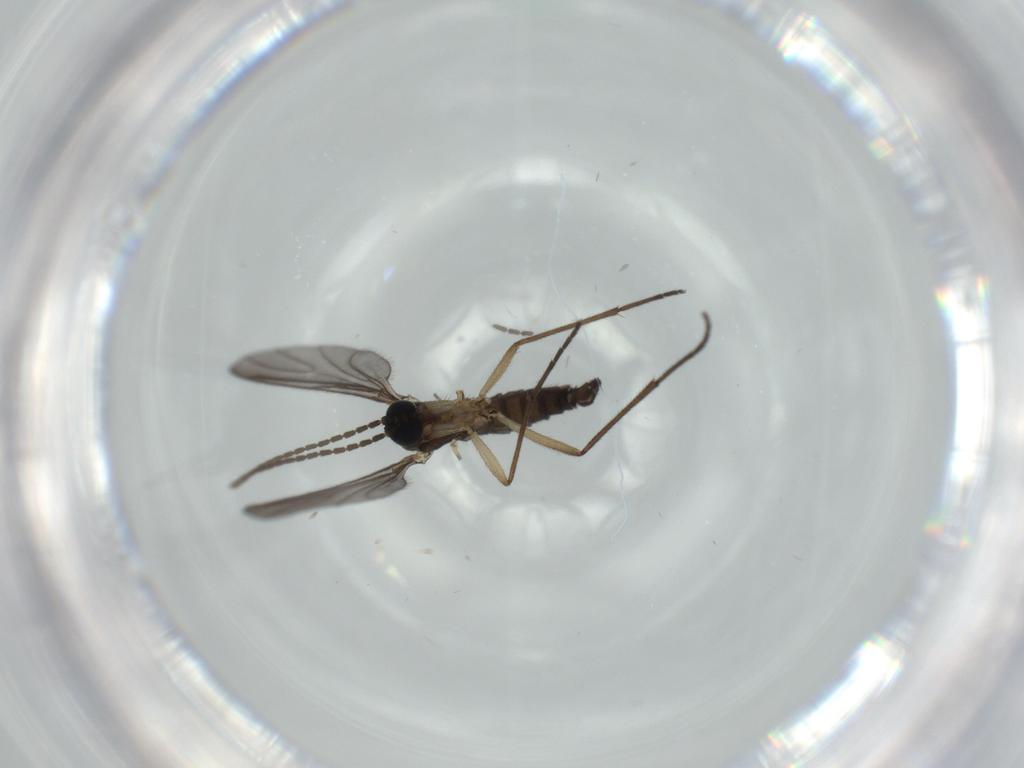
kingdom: Animalia
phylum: Arthropoda
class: Insecta
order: Diptera
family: Sciaridae
